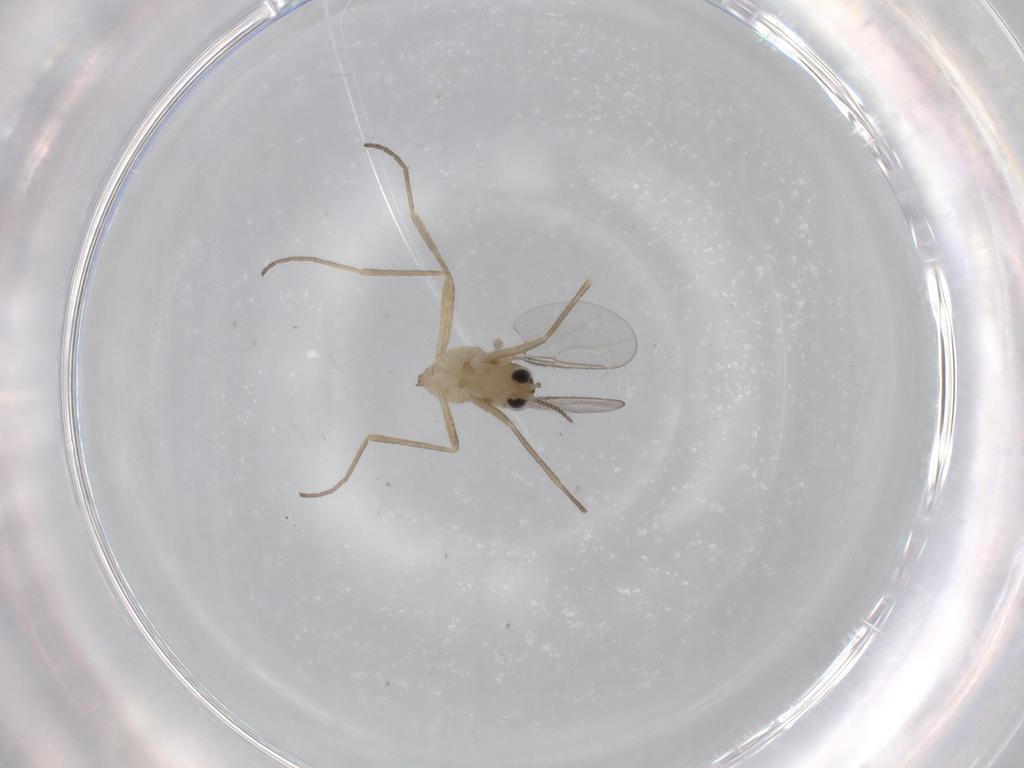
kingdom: Animalia
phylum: Arthropoda
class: Insecta
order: Diptera
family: Cecidomyiidae
